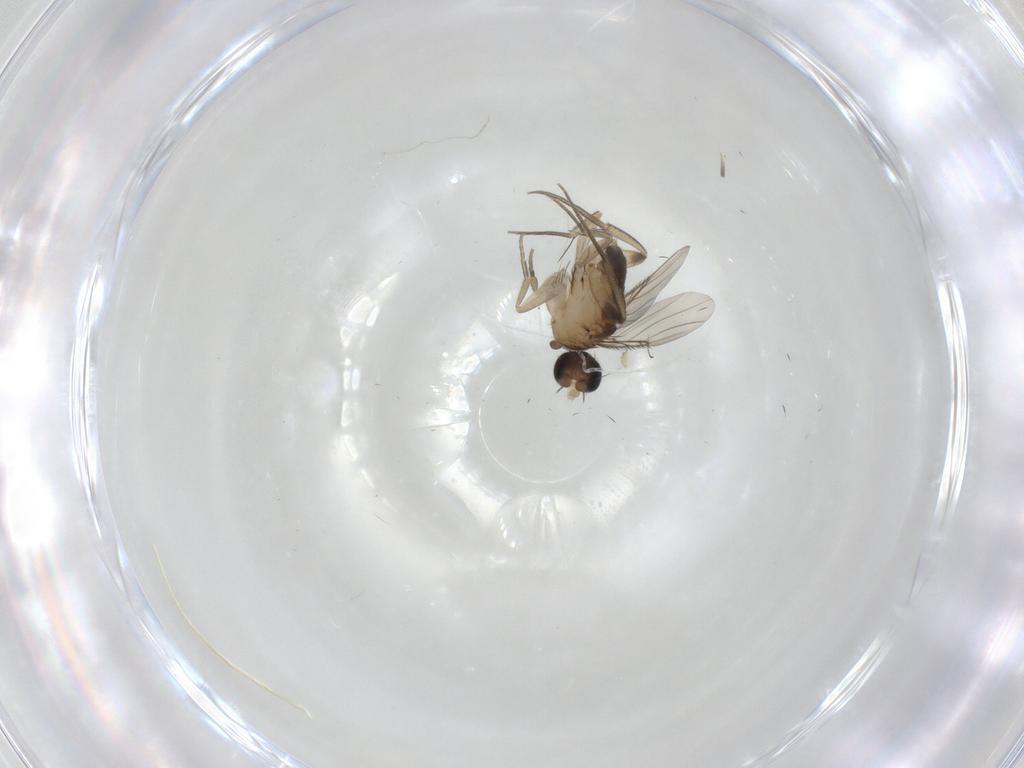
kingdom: Animalia
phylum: Arthropoda
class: Insecta
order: Diptera
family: Phoridae
